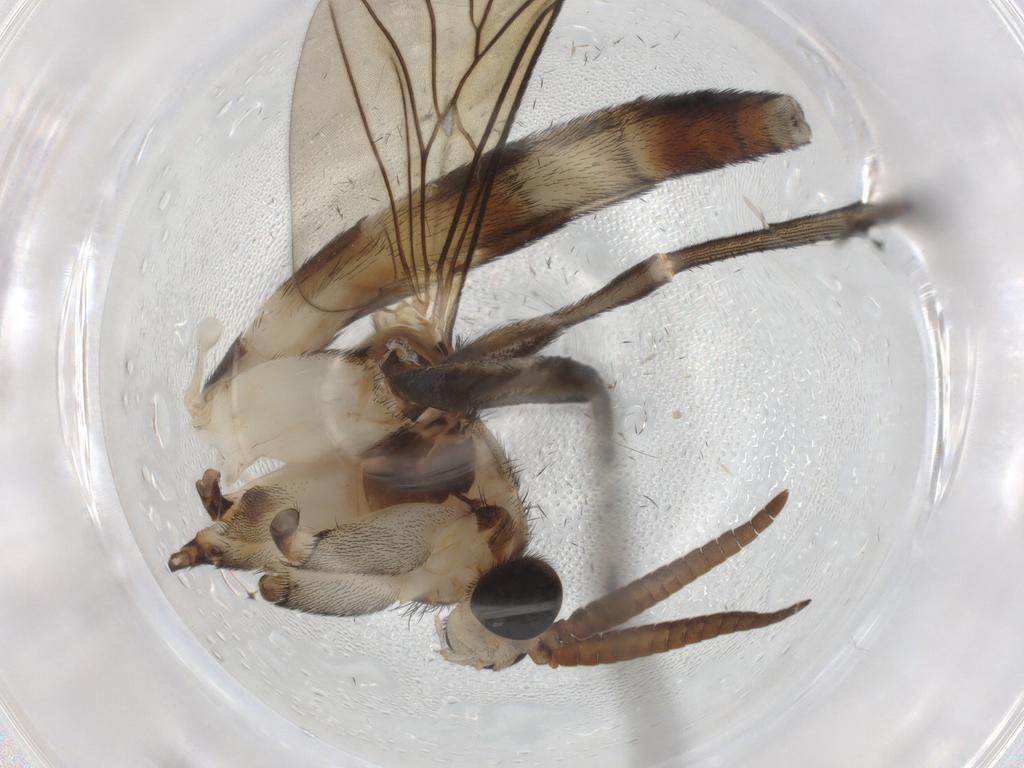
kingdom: Animalia
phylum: Arthropoda
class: Insecta
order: Diptera
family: Keroplatidae
